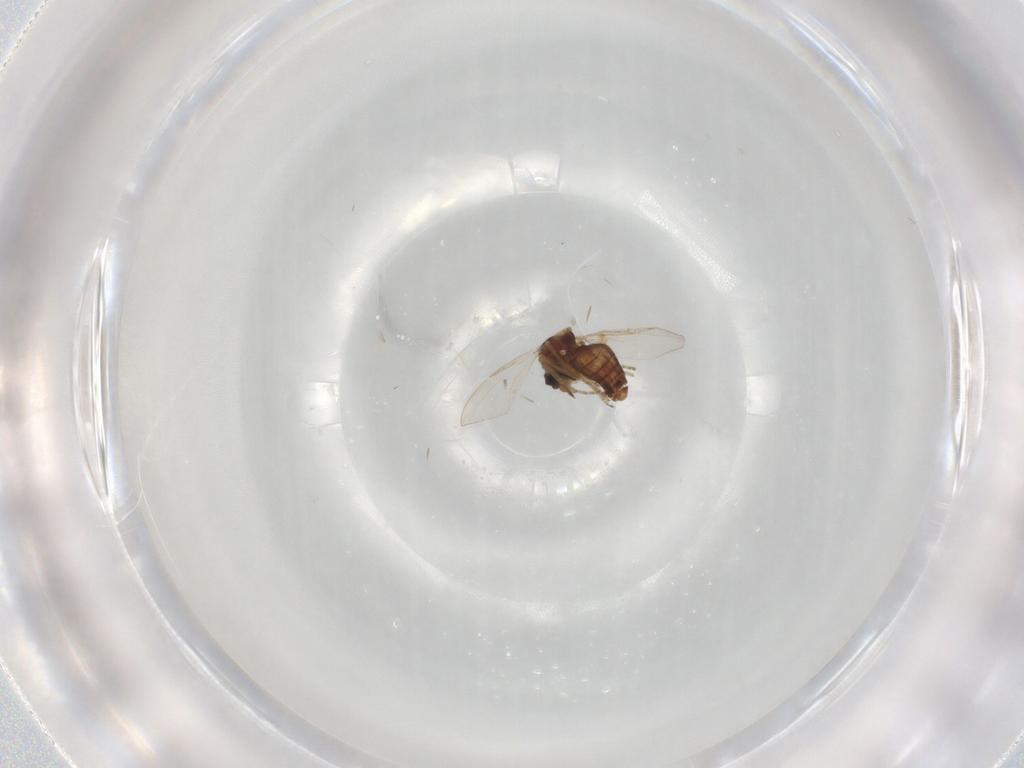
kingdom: Animalia
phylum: Arthropoda
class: Insecta
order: Diptera
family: Ceratopogonidae
